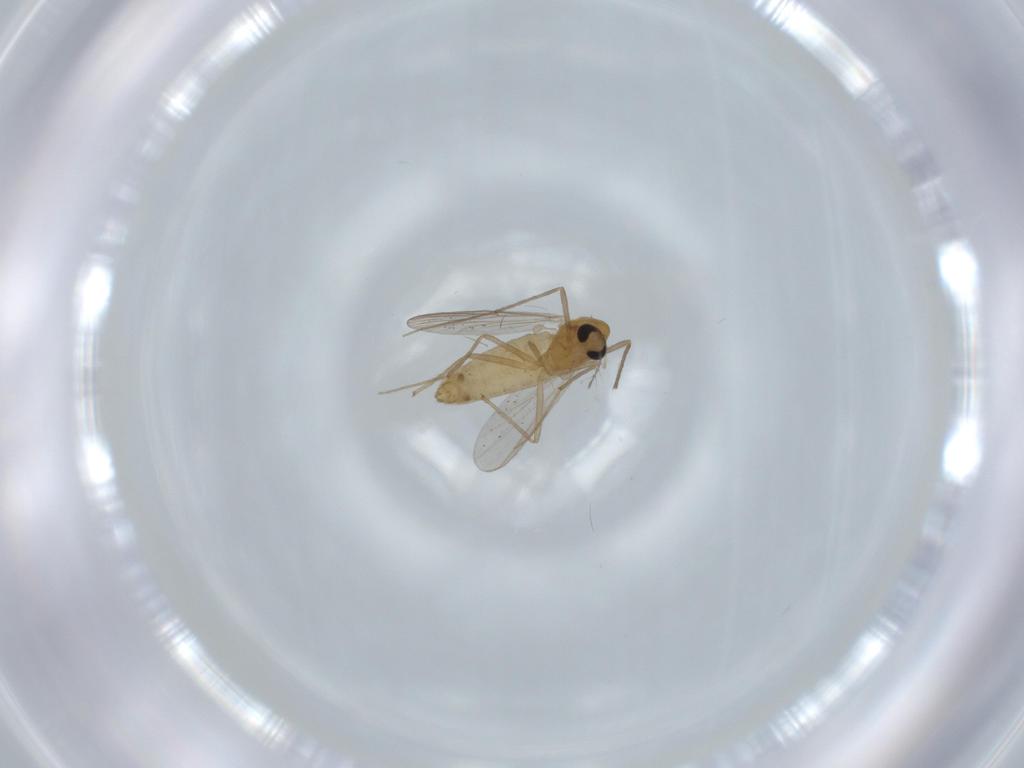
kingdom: Animalia
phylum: Arthropoda
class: Insecta
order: Diptera
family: Chironomidae
